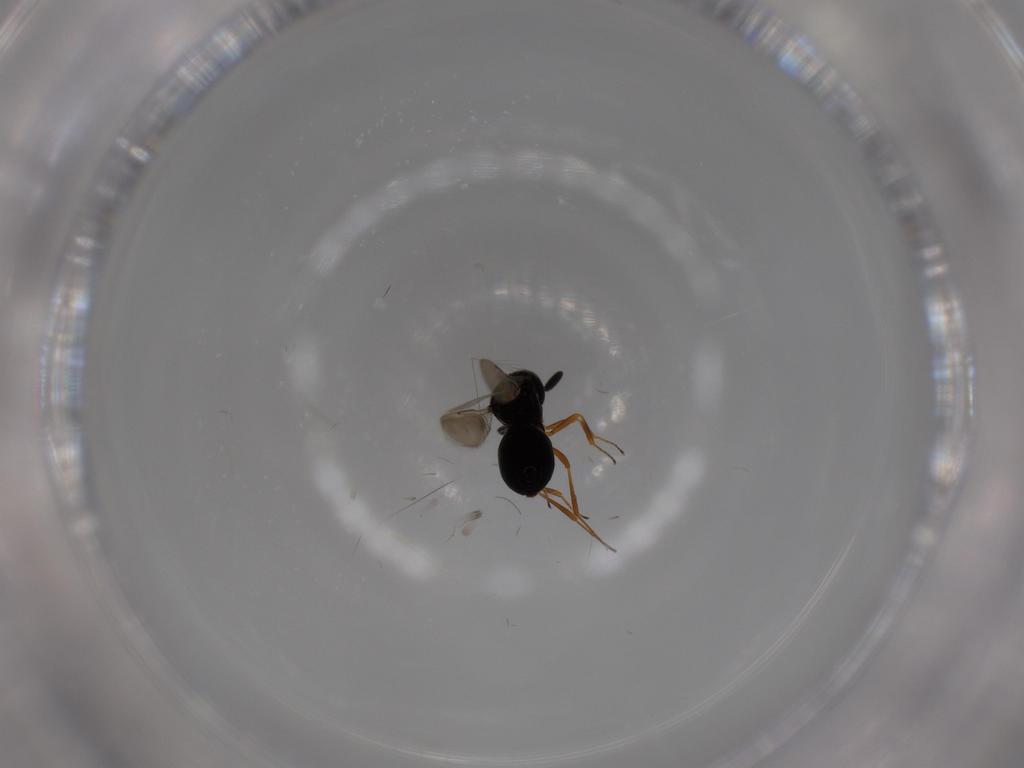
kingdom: Animalia
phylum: Arthropoda
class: Insecta
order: Hymenoptera
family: Scelionidae
